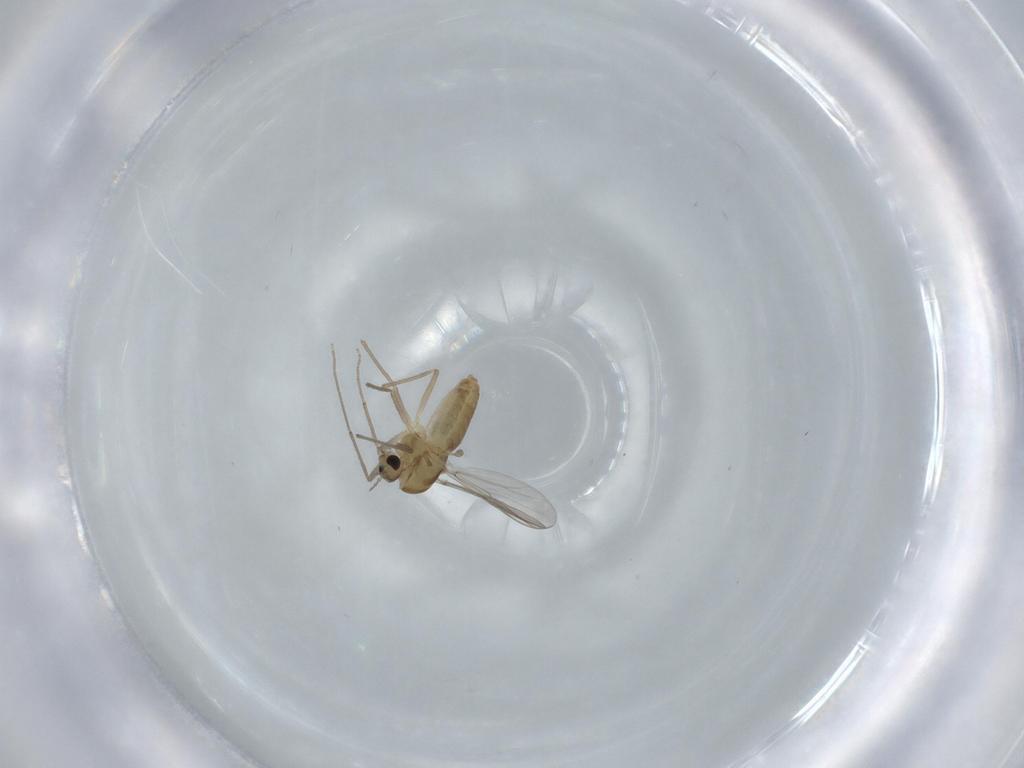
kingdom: Animalia
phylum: Arthropoda
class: Insecta
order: Diptera
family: Chironomidae
